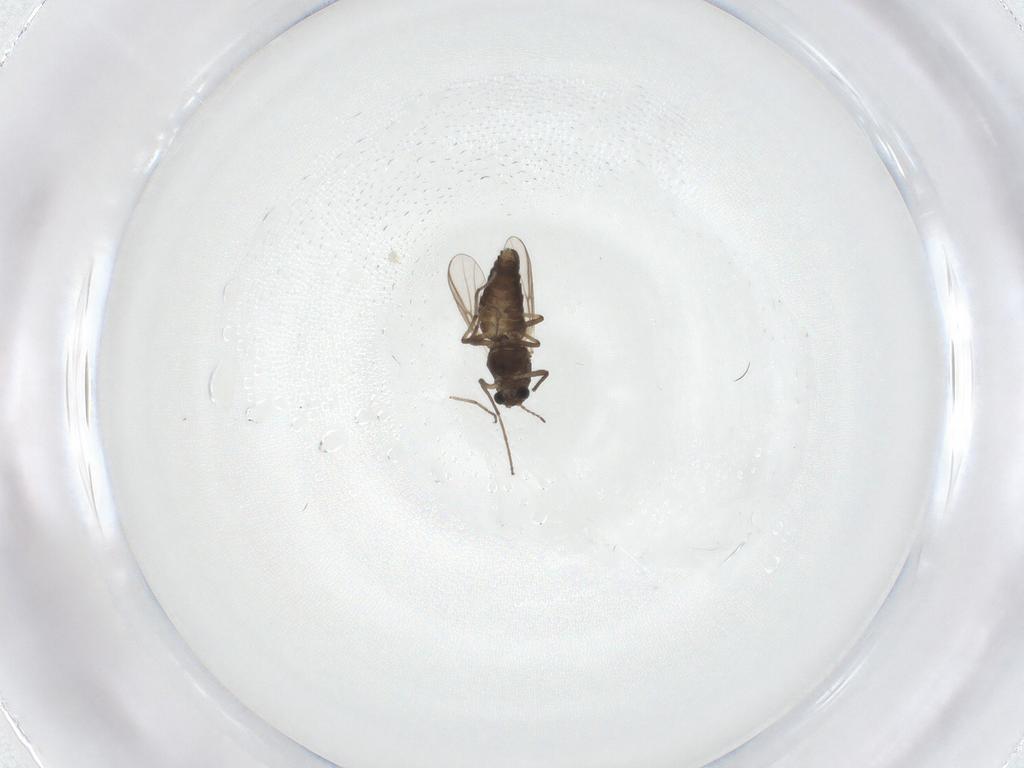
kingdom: Animalia
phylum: Arthropoda
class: Insecta
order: Diptera
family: Chironomidae
